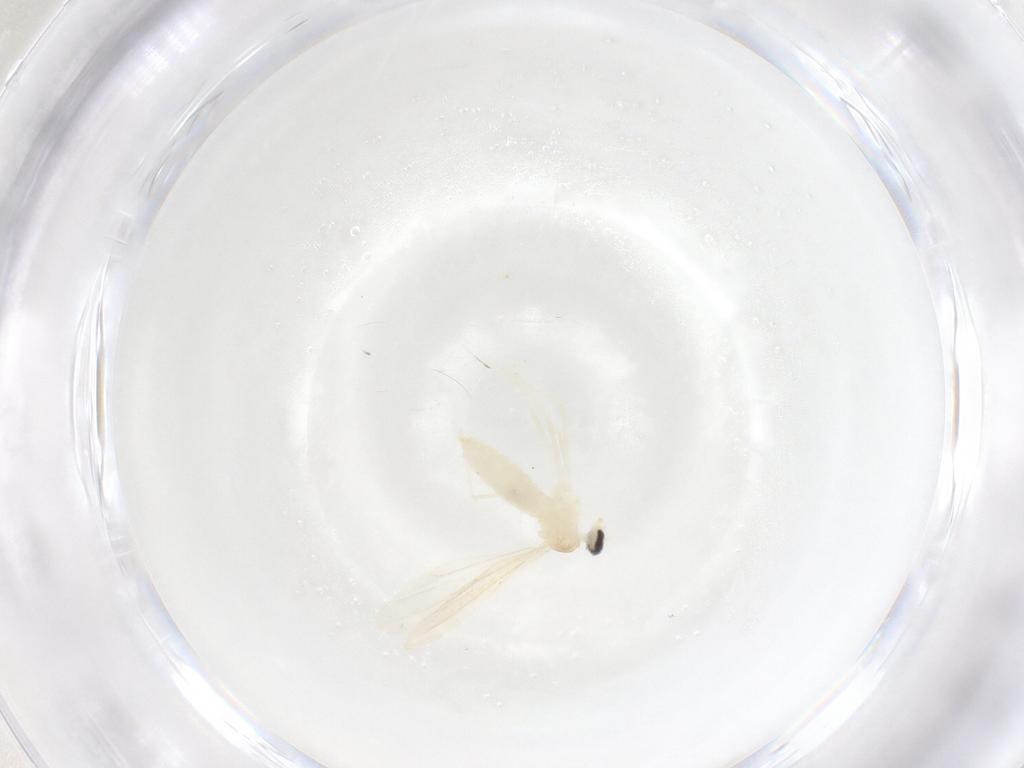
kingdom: Animalia
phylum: Arthropoda
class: Insecta
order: Diptera
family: Cecidomyiidae
